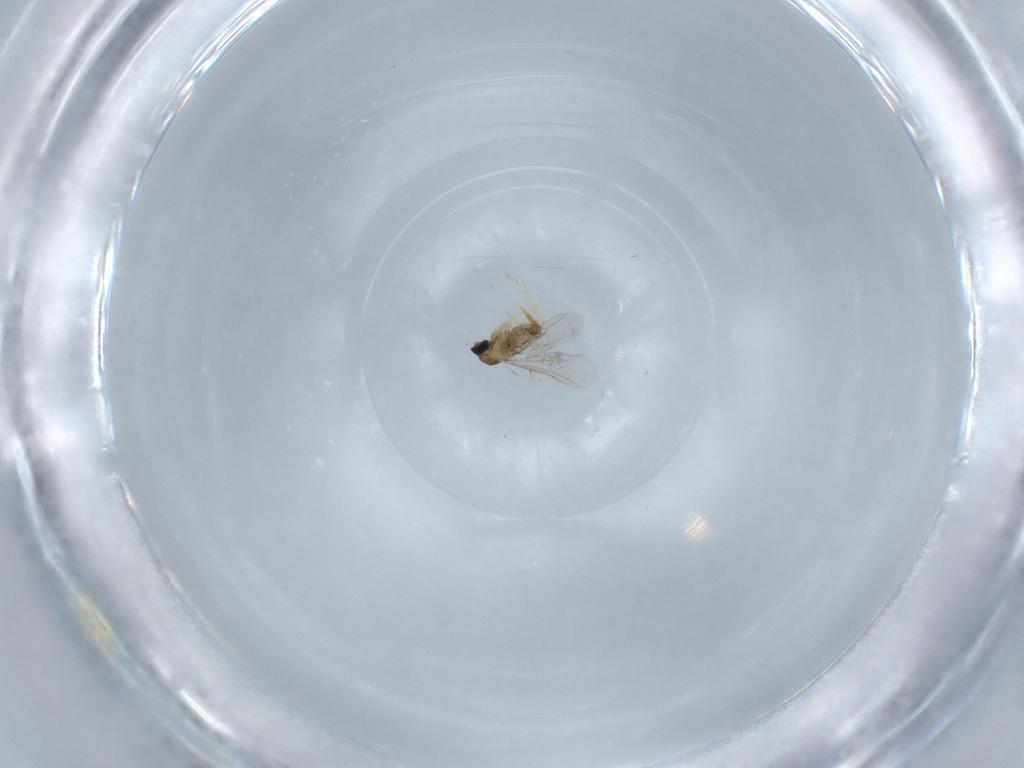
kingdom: Animalia
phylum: Arthropoda
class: Insecta
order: Diptera
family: Cecidomyiidae
